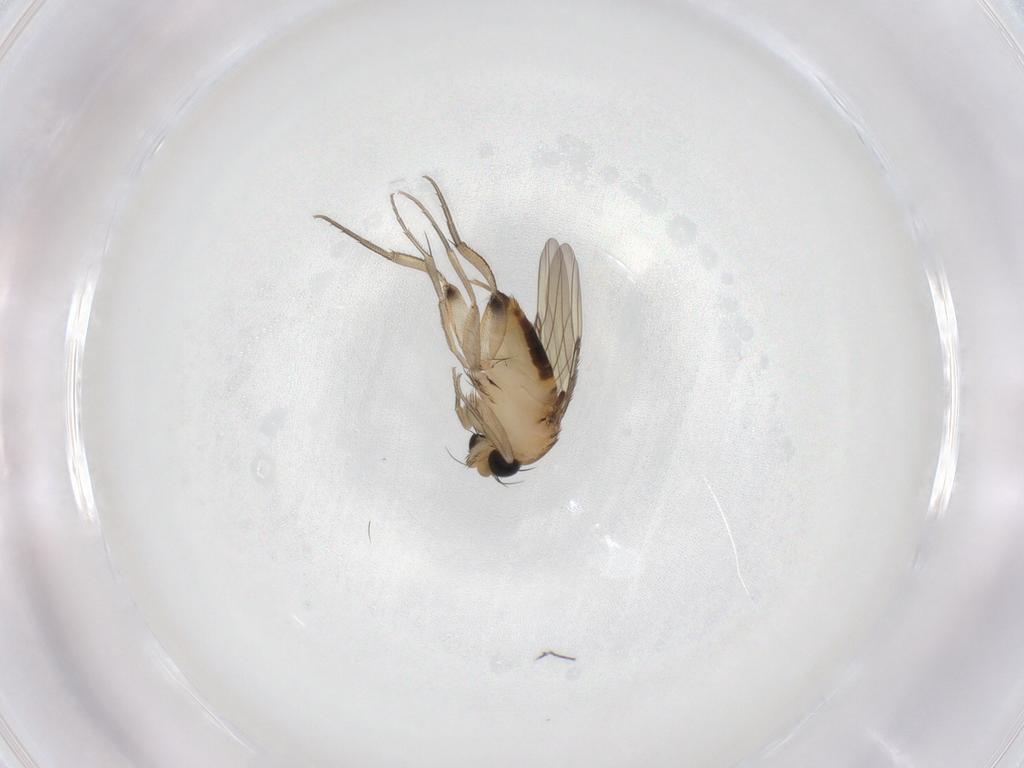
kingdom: Animalia
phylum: Arthropoda
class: Insecta
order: Diptera
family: Phoridae
